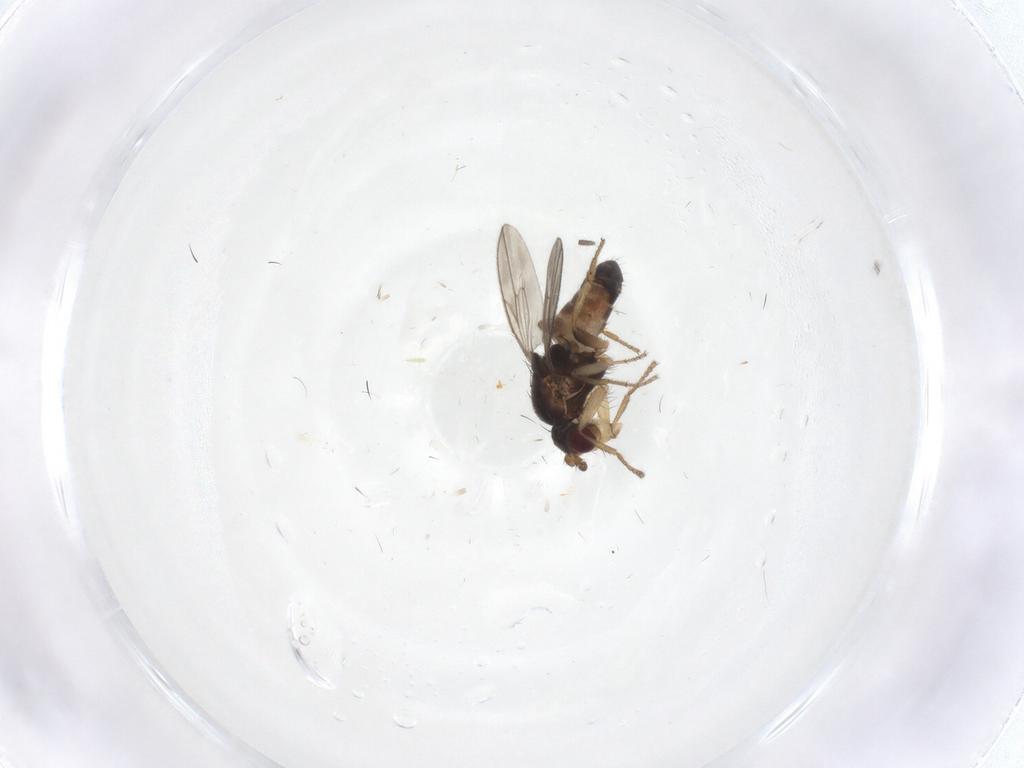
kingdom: Animalia
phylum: Arthropoda
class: Insecta
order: Diptera
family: Sphaeroceridae
